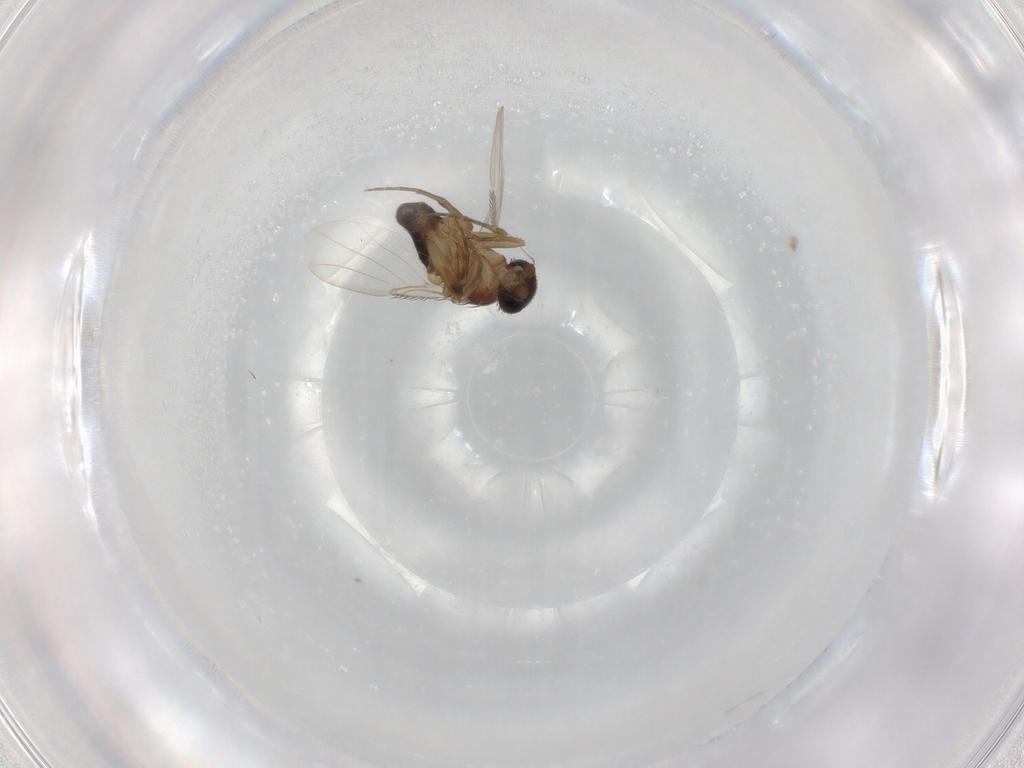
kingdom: Animalia
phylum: Arthropoda
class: Insecta
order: Diptera
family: Phoridae
